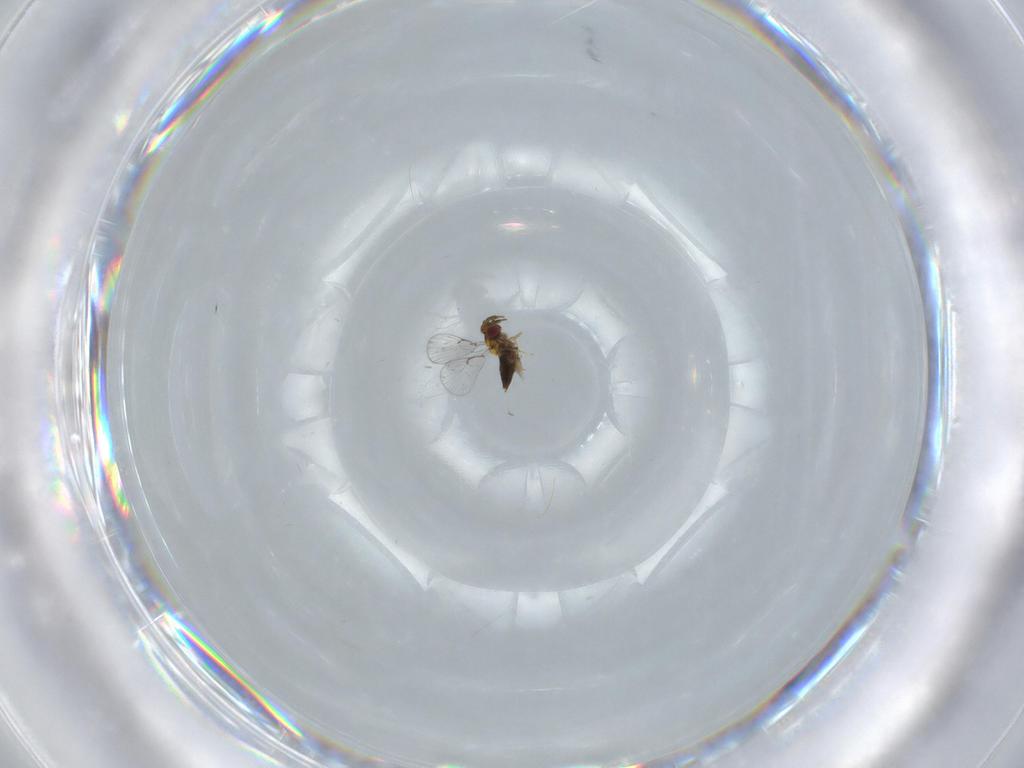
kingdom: Animalia
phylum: Arthropoda
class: Insecta
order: Hymenoptera
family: Trichogrammatidae
